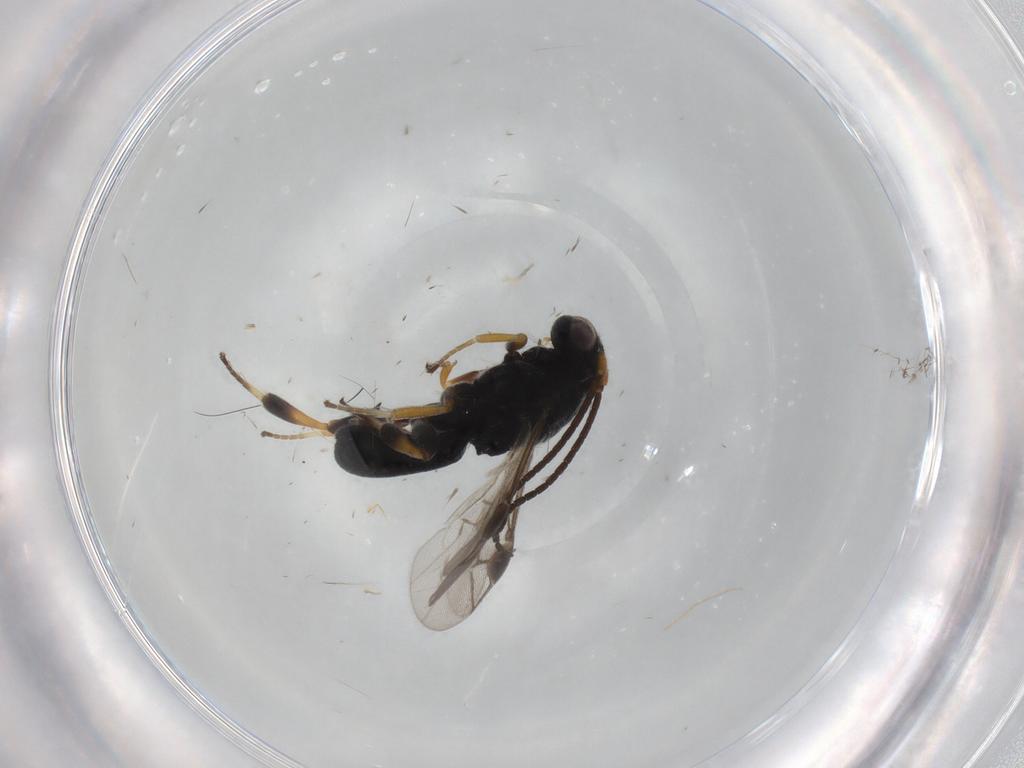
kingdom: Animalia
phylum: Arthropoda
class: Insecta
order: Hymenoptera
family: Braconidae
